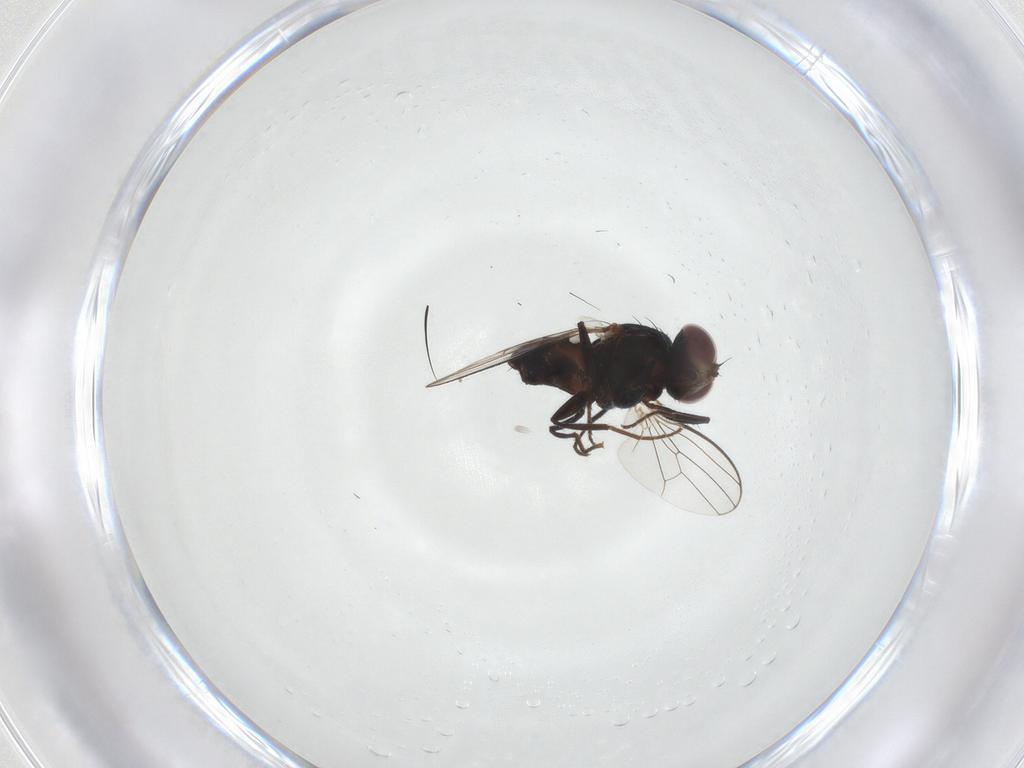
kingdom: Animalia
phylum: Arthropoda
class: Insecta
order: Diptera
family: Carnidae
